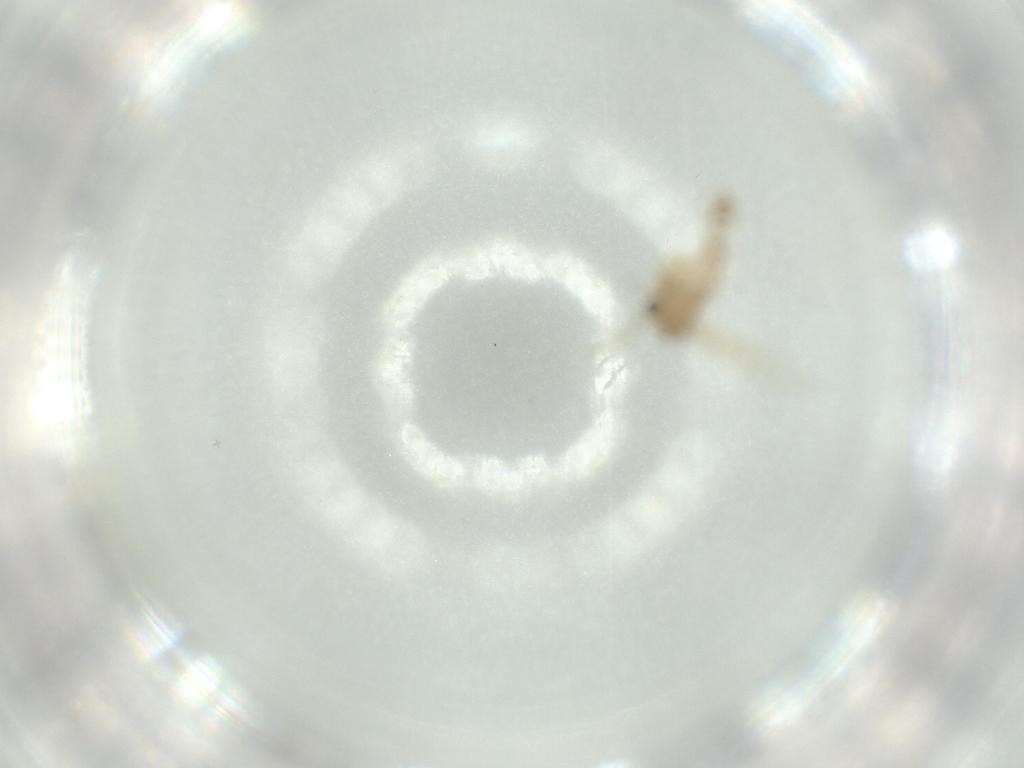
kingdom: Animalia
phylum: Arthropoda
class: Insecta
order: Diptera
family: Psychodidae
